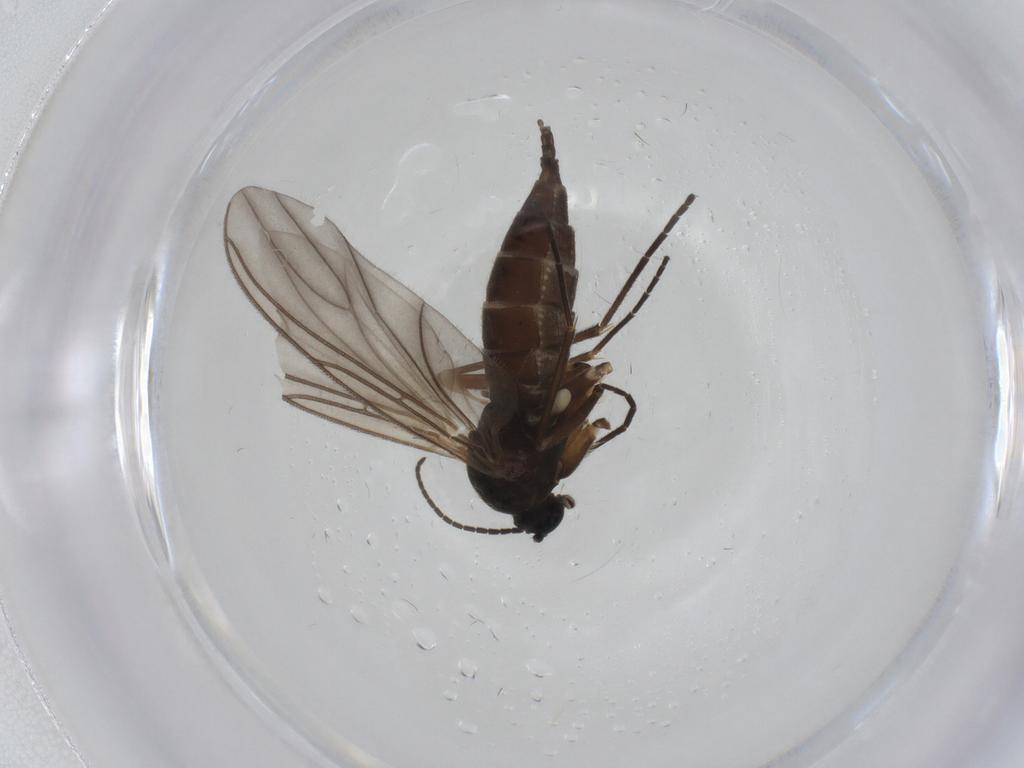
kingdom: Animalia
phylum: Arthropoda
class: Insecta
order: Diptera
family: Sciaridae
